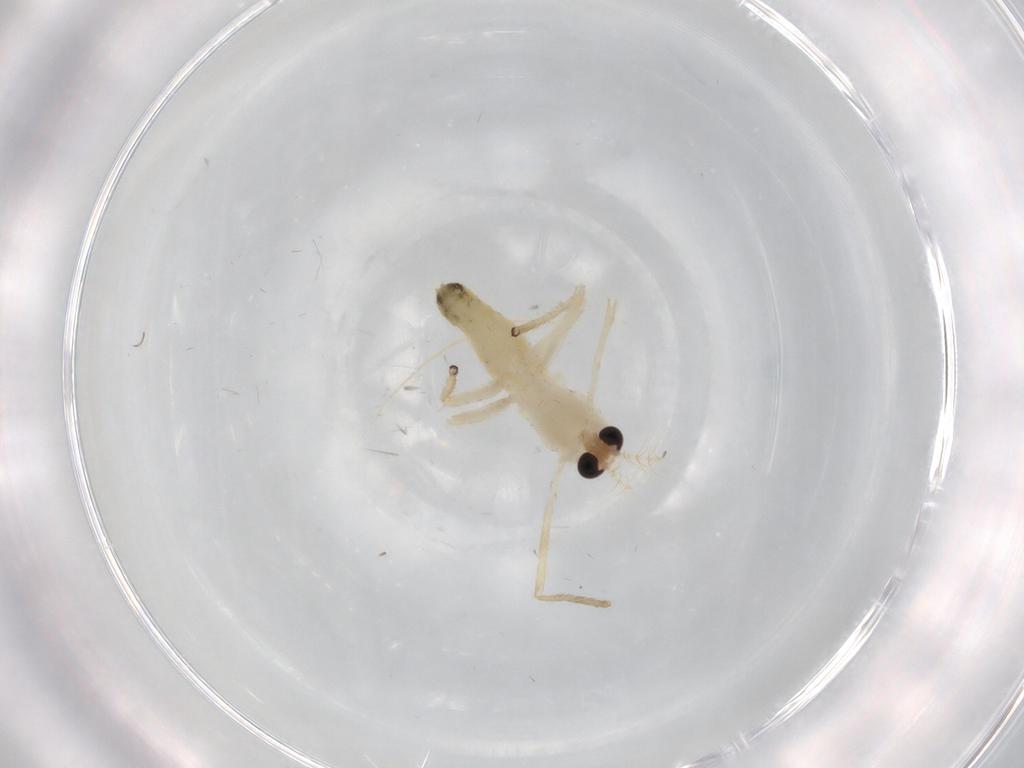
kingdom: Animalia
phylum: Arthropoda
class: Insecta
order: Diptera
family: Chironomidae
